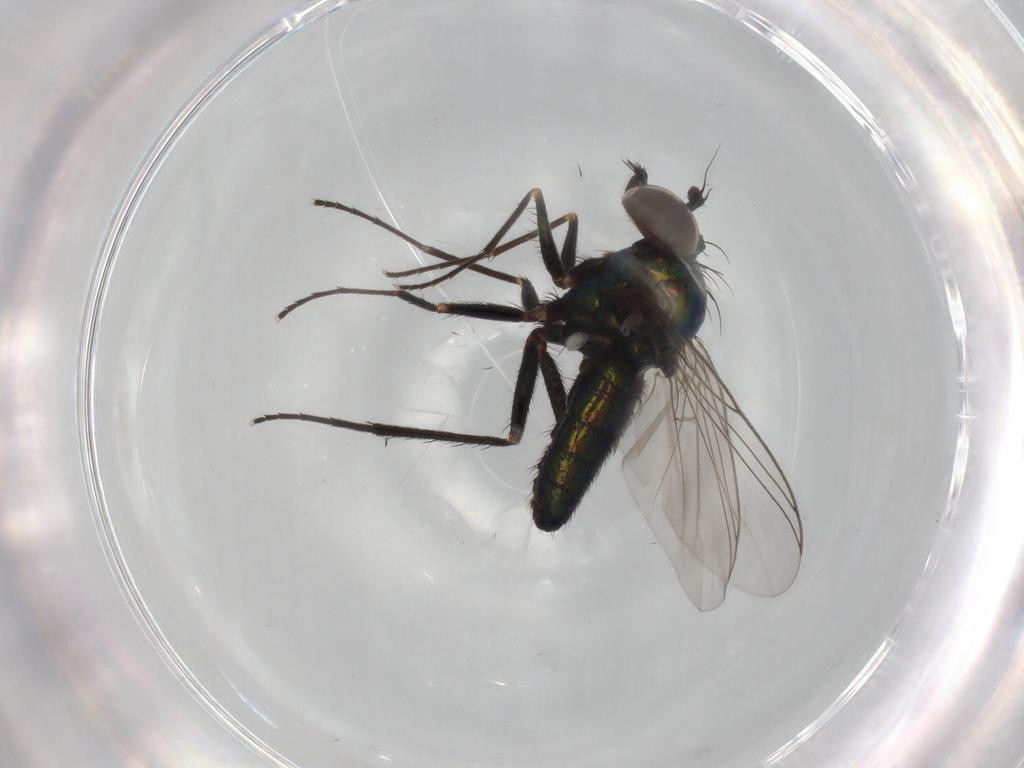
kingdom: Animalia
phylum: Arthropoda
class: Insecta
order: Diptera
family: Dolichopodidae
